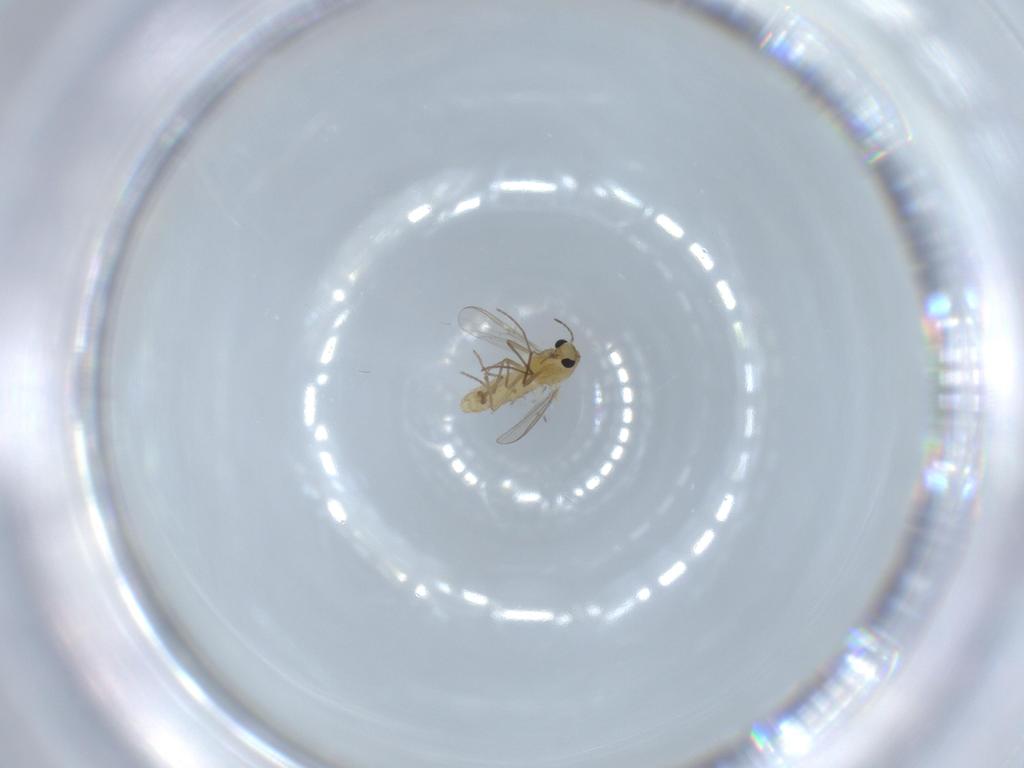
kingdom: Animalia
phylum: Arthropoda
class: Insecta
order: Diptera
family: Chironomidae
